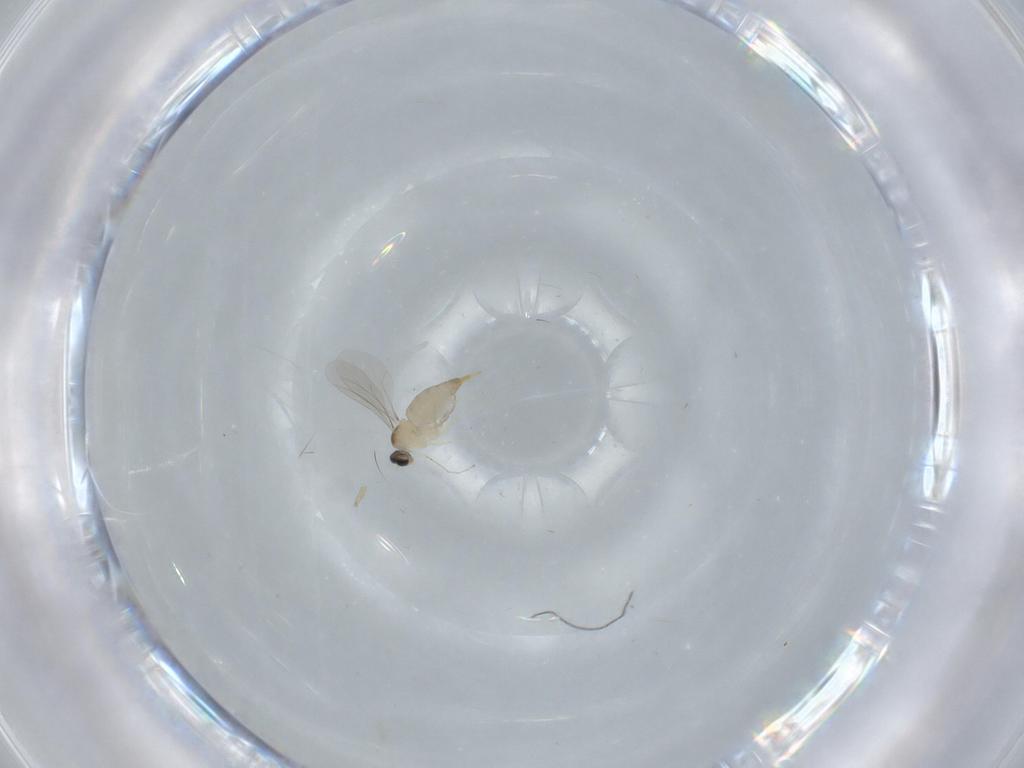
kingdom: Animalia
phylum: Arthropoda
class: Insecta
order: Diptera
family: Cecidomyiidae
